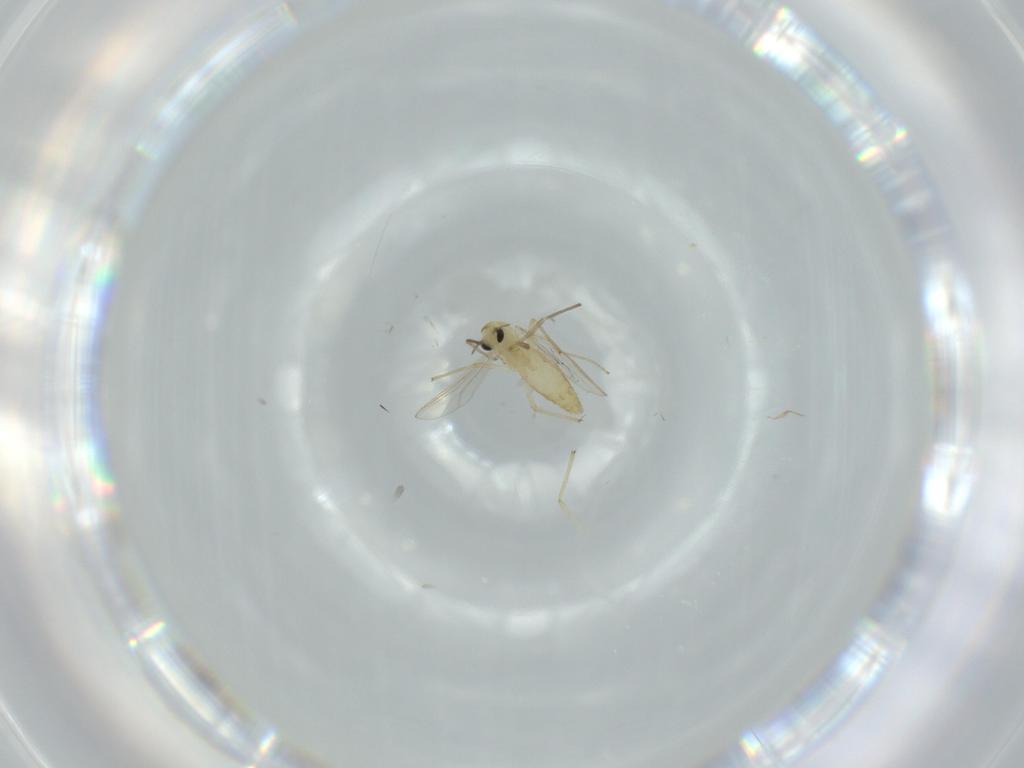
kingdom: Animalia
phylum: Arthropoda
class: Insecta
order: Diptera
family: Chironomidae
